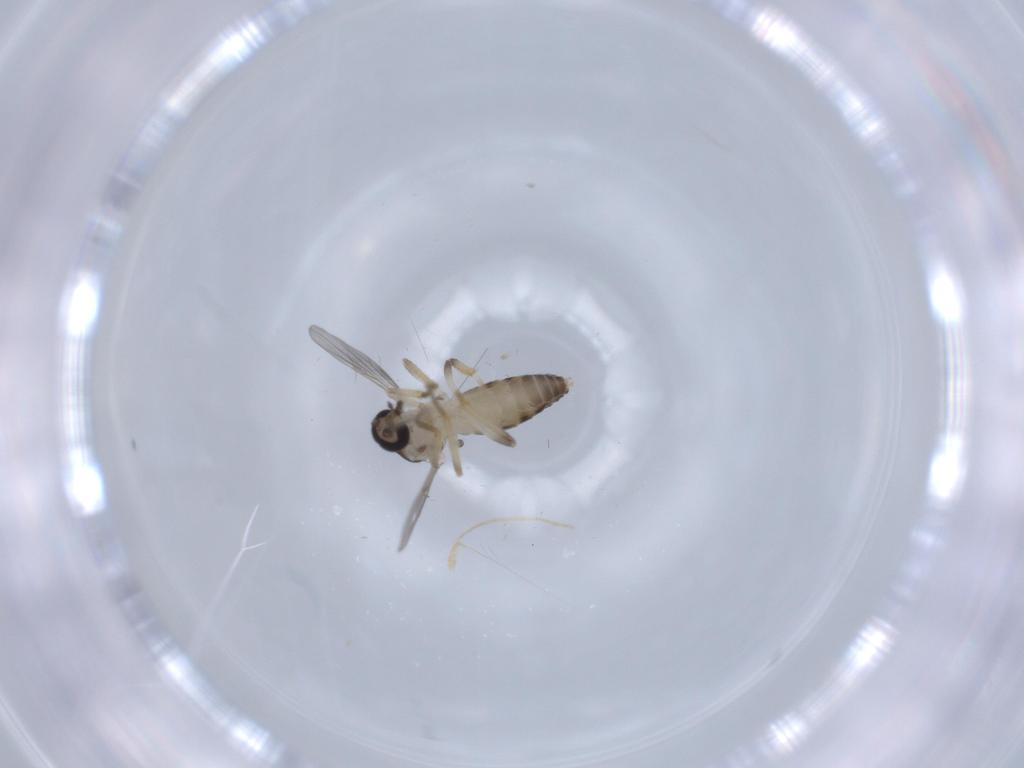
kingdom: Animalia
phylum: Arthropoda
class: Insecta
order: Diptera
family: Ceratopogonidae
